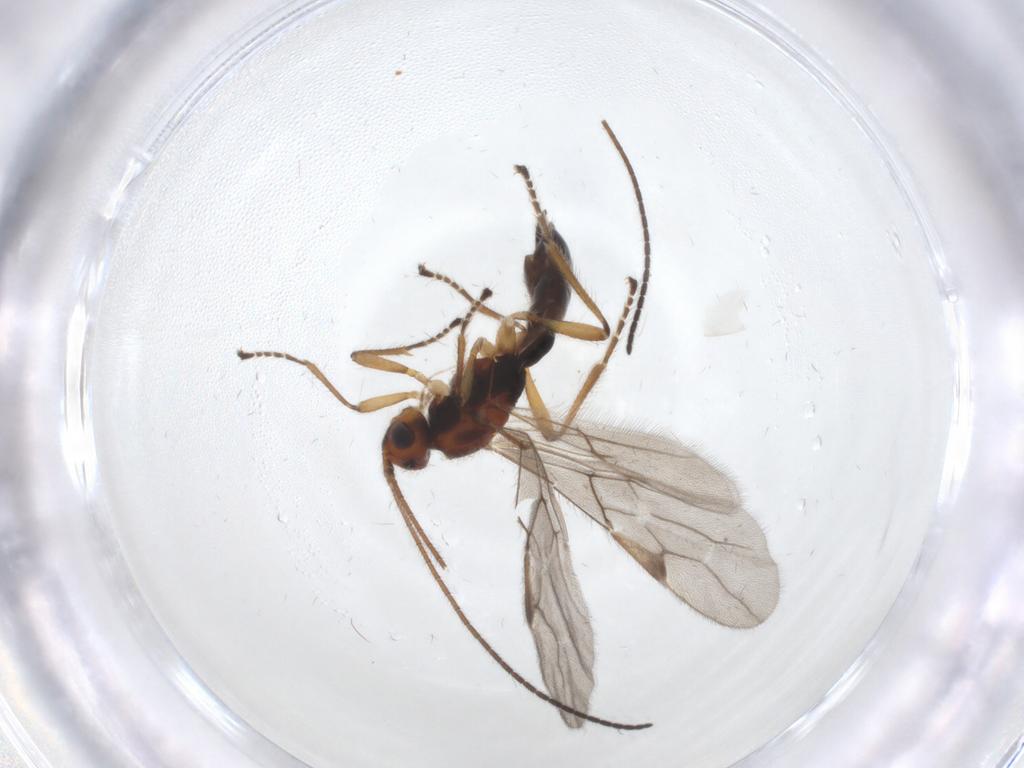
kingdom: Animalia
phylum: Arthropoda
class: Insecta
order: Hymenoptera
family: Braconidae
